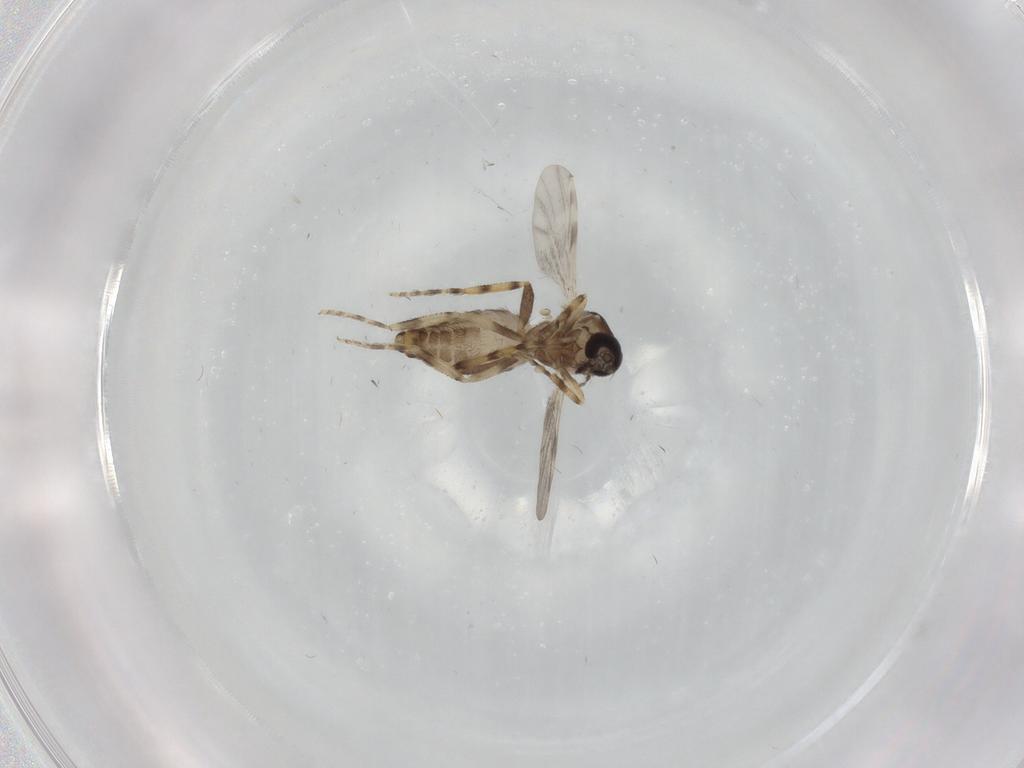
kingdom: Animalia
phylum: Arthropoda
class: Insecta
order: Diptera
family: Ceratopogonidae
